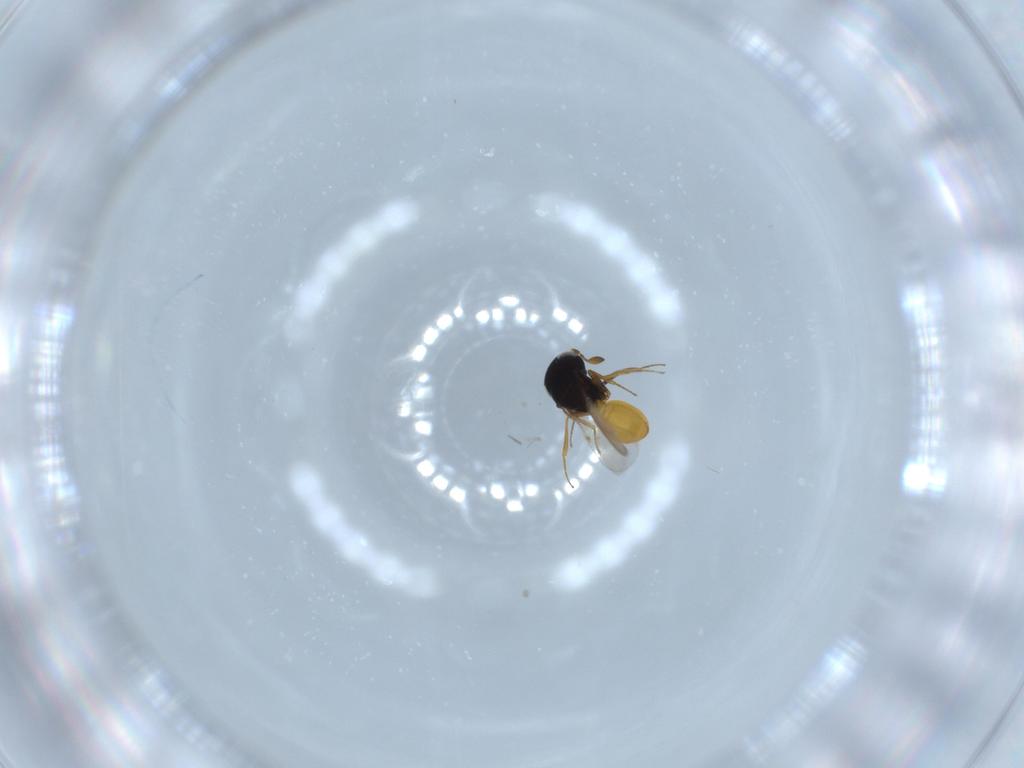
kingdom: Animalia
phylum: Arthropoda
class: Insecta
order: Hymenoptera
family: Scelionidae
